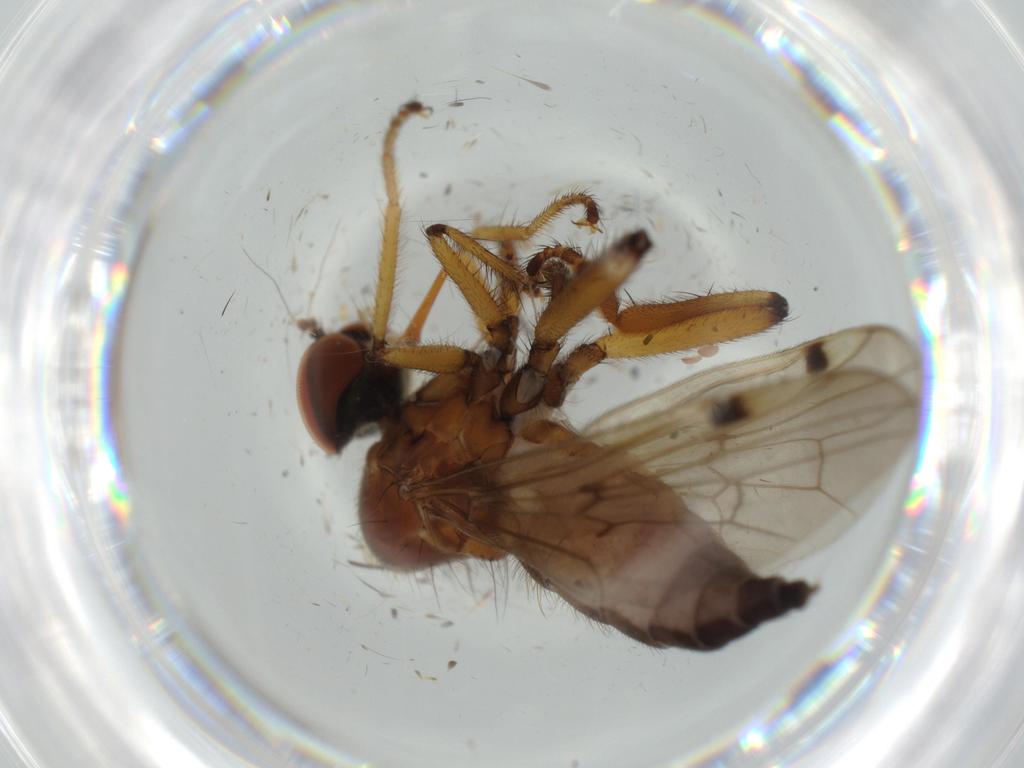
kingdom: Animalia
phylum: Arthropoda
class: Insecta
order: Diptera
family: Hybotidae
